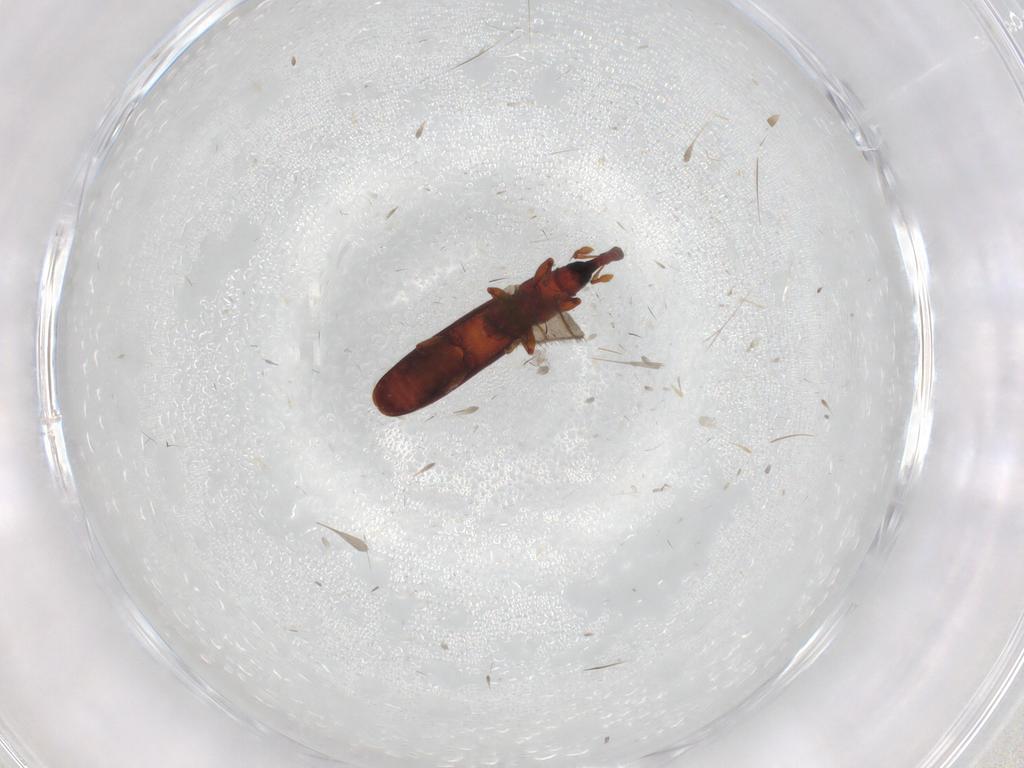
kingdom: Animalia
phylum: Arthropoda
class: Insecta
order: Coleoptera
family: Curculionidae
